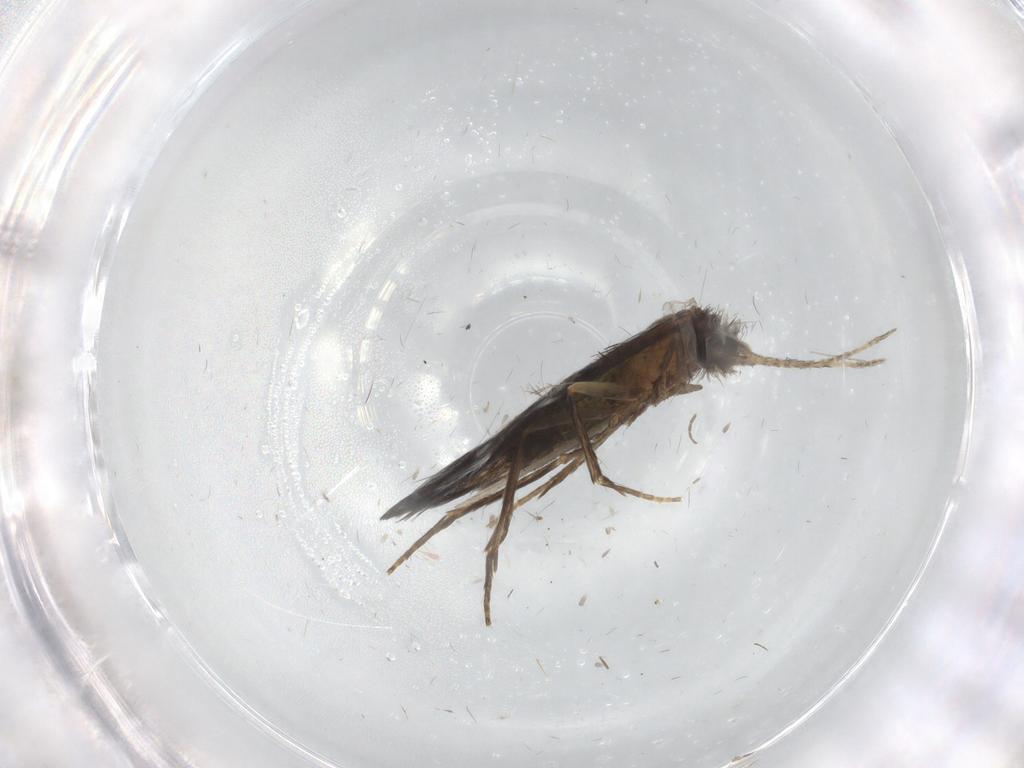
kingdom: Animalia
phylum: Arthropoda
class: Insecta
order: Trichoptera
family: Hydroptilidae
